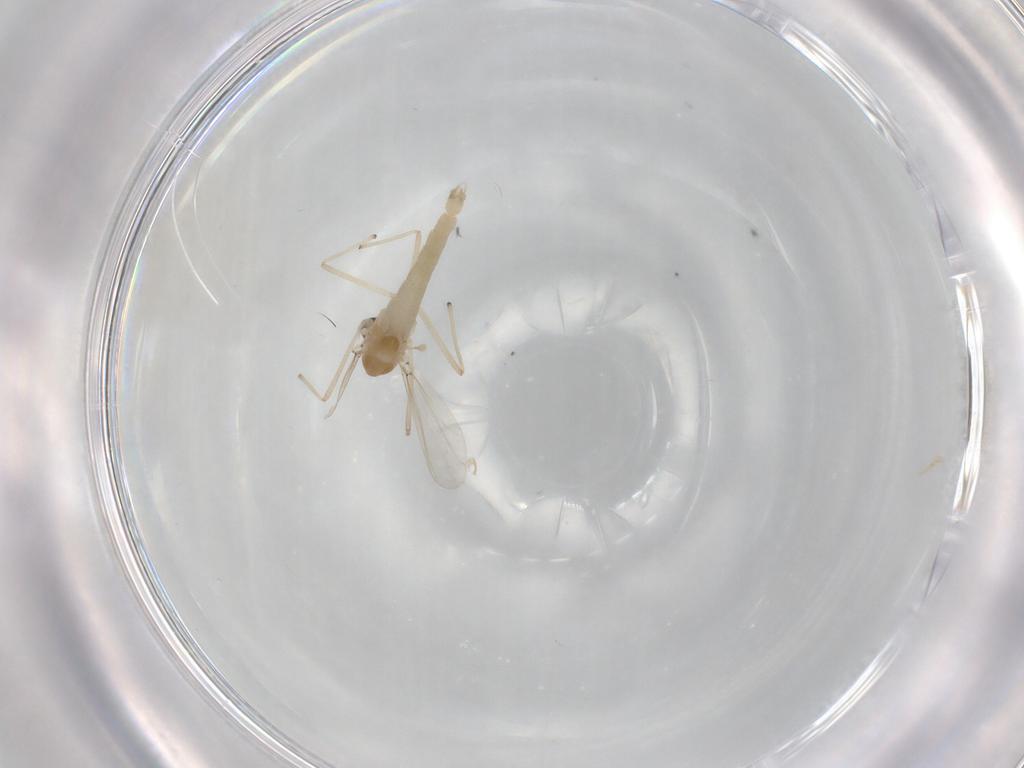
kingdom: Animalia
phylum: Arthropoda
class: Insecta
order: Diptera
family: Chironomidae
